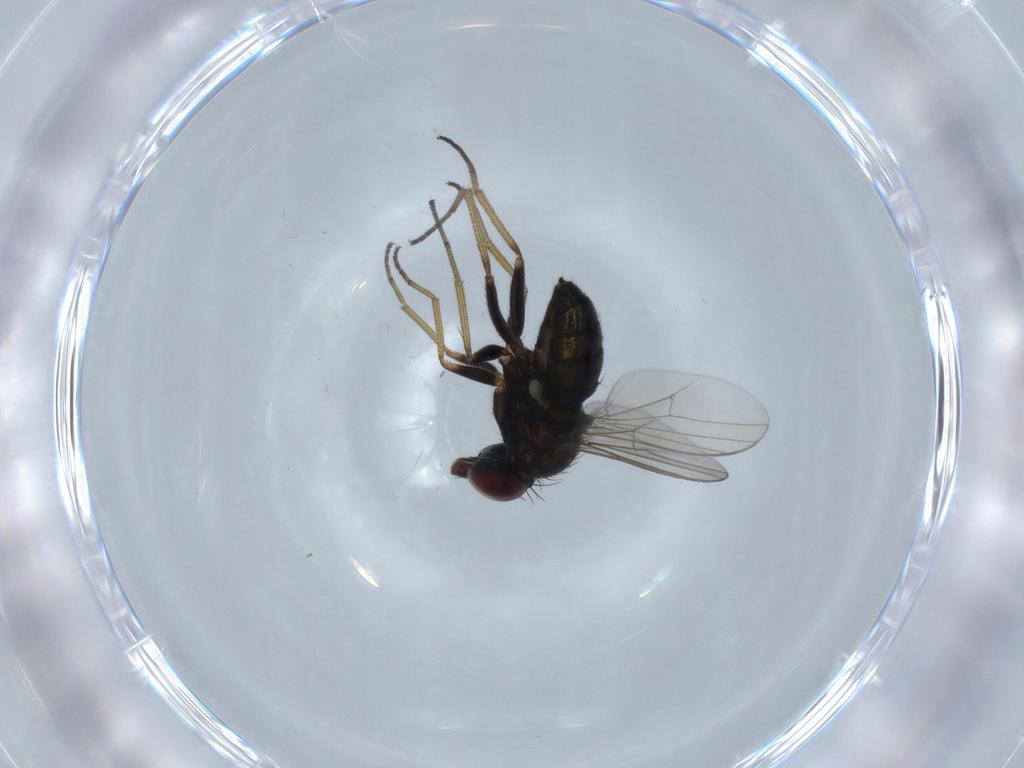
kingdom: Animalia
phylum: Arthropoda
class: Insecta
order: Diptera
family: Dolichopodidae
